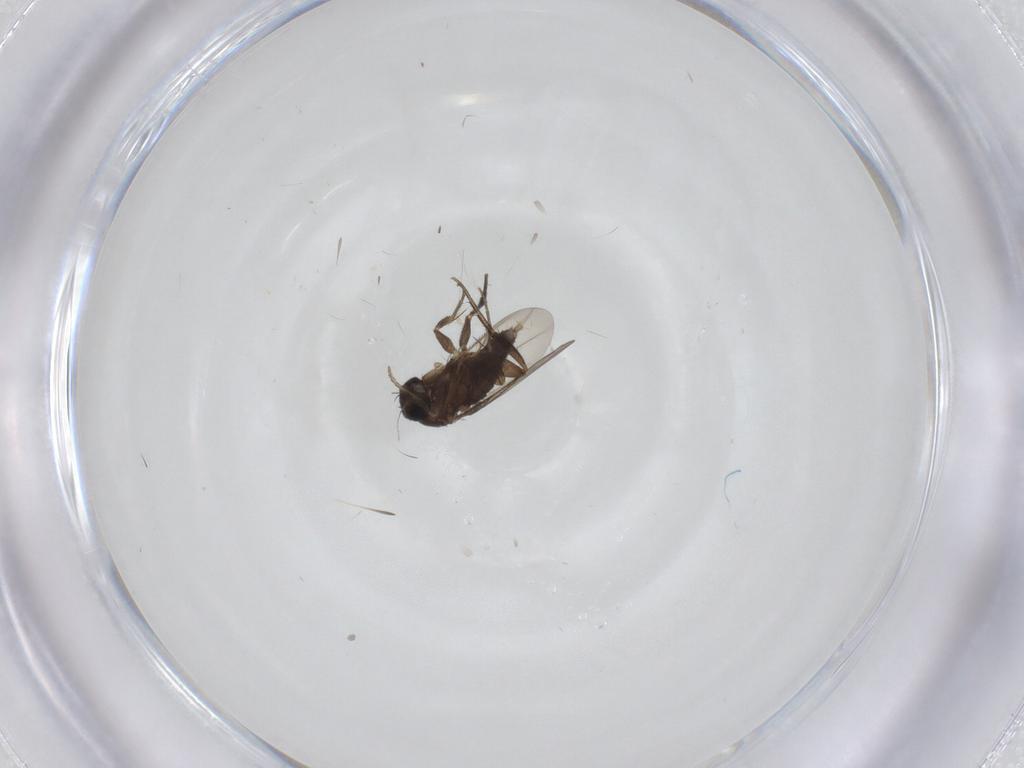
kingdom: Animalia
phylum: Arthropoda
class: Insecta
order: Diptera
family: Phoridae
